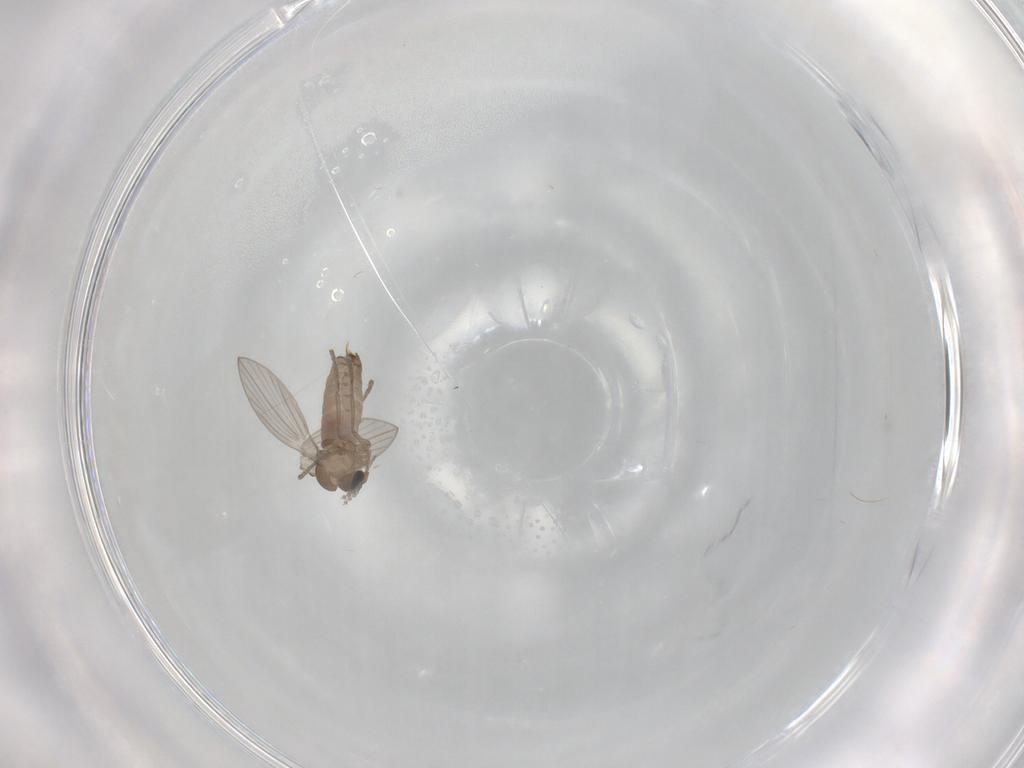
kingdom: Animalia
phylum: Arthropoda
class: Insecta
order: Diptera
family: Psychodidae
